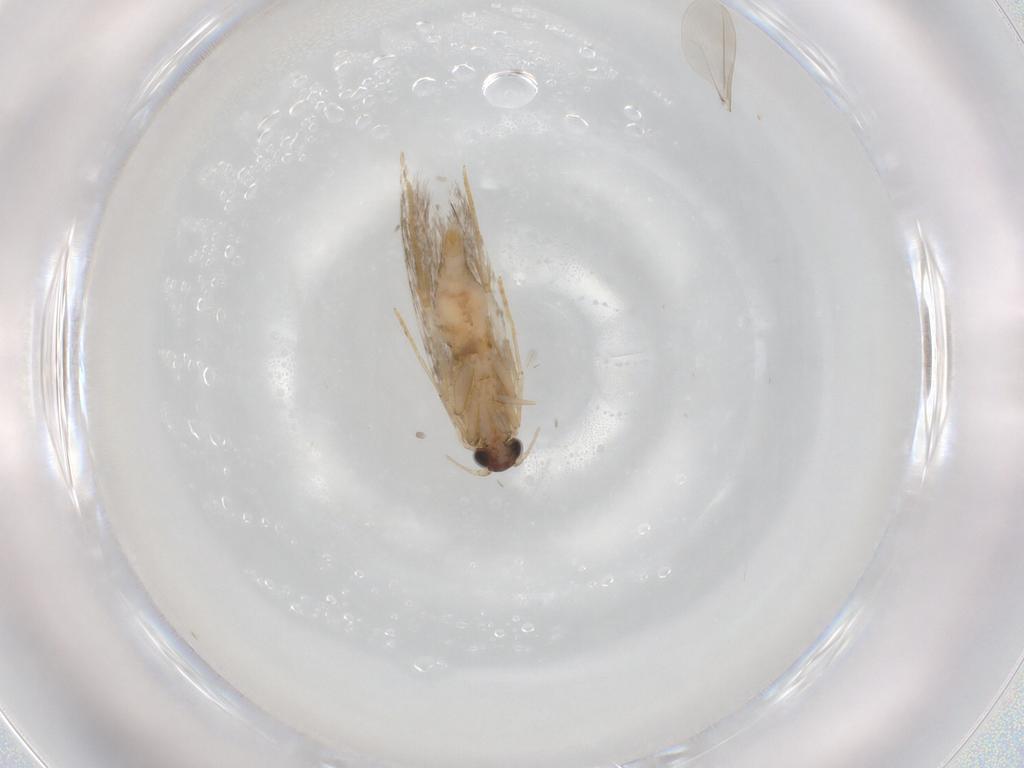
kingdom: Animalia
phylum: Arthropoda
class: Insecta
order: Lepidoptera
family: Tineidae
